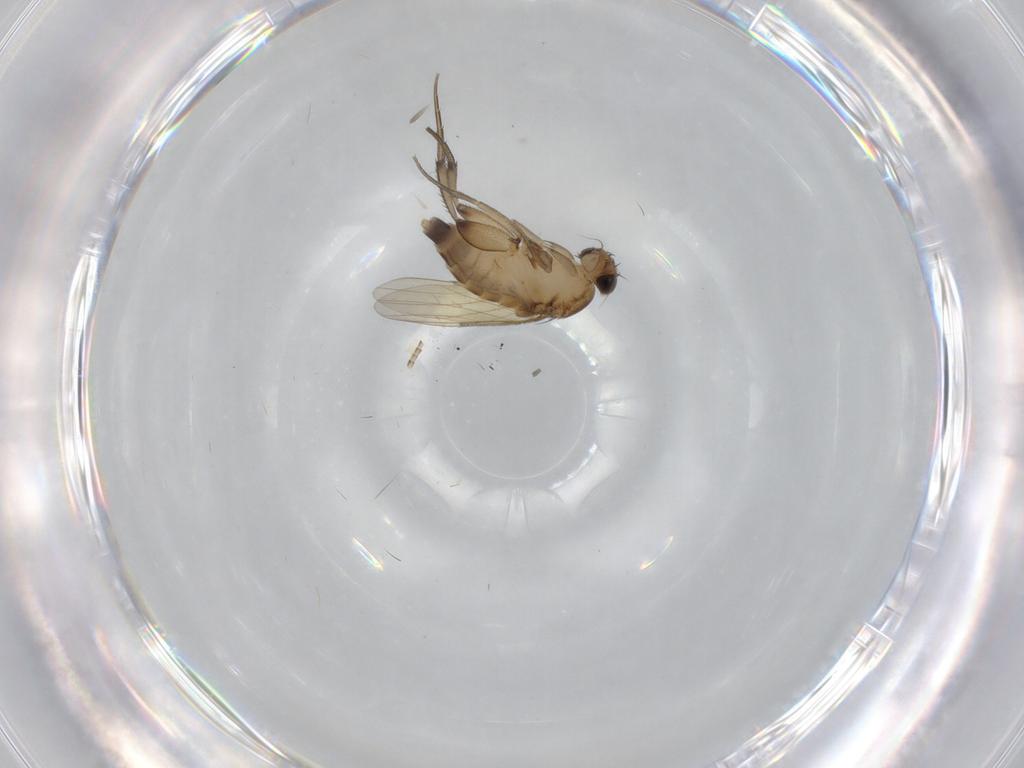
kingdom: Animalia
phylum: Arthropoda
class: Insecta
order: Diptera
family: Phoridae
